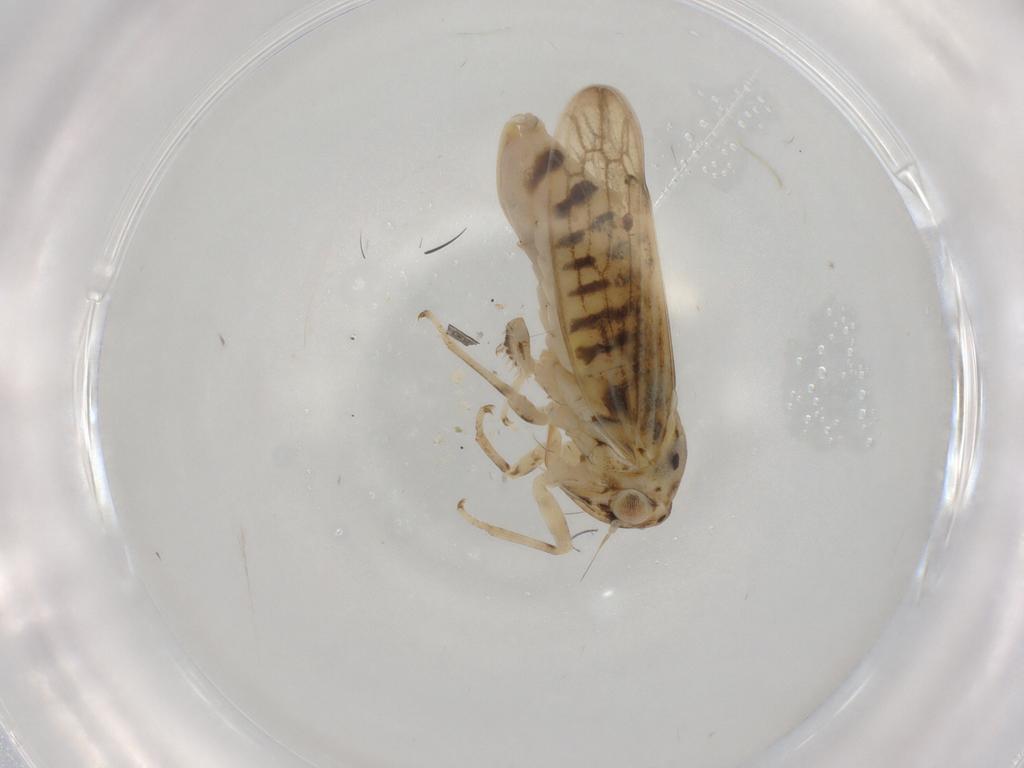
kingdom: Animalia
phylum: Arthropoda
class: Insecta
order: Hemiptera
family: Cicadellidae
